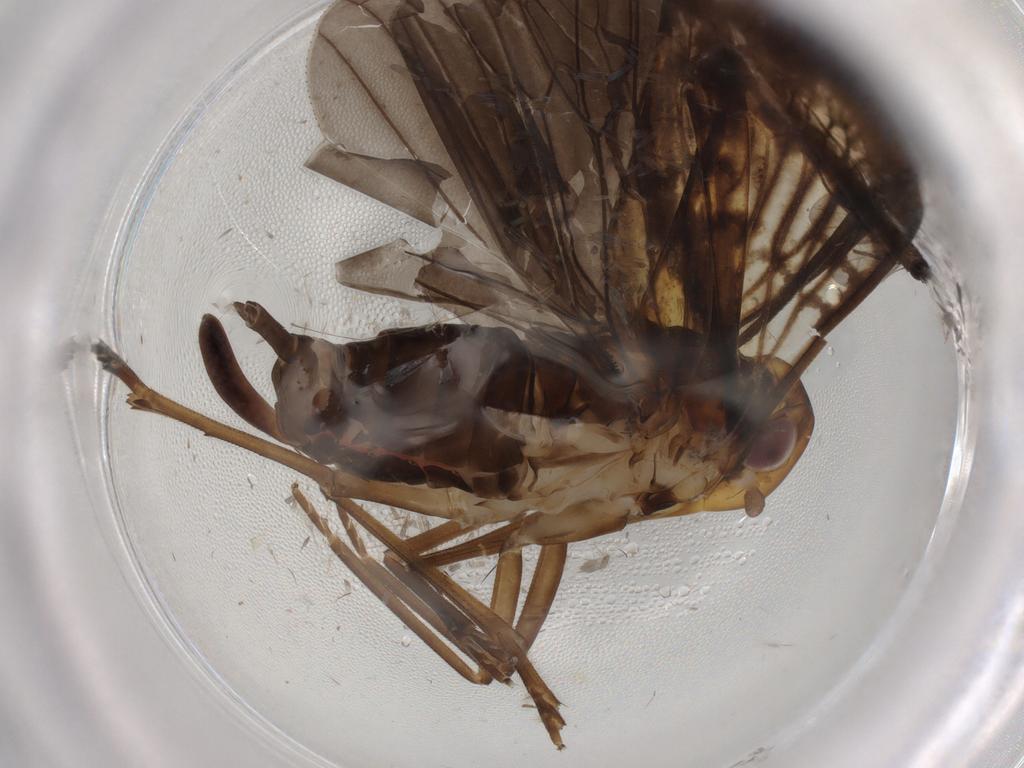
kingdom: Animalia
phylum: Arthropoda
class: Insecta
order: Hemiptera
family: Cixiidae
